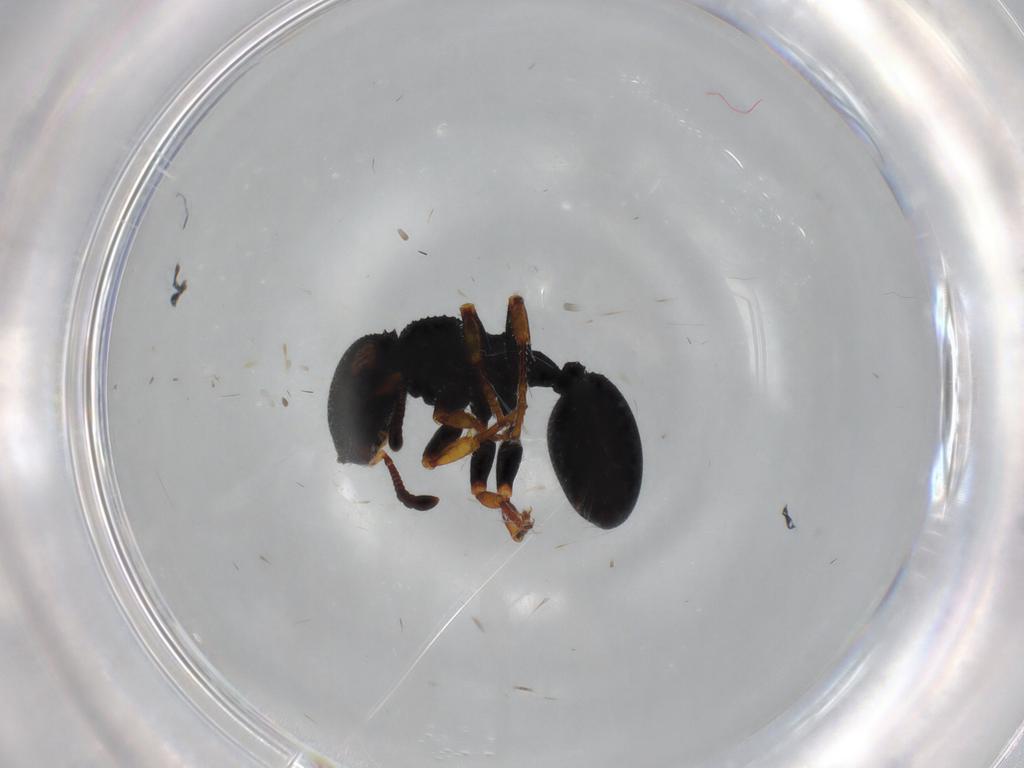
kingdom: Animalia
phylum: Arthropoda
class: Insecta
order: Hymenoptera
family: Formicidae
